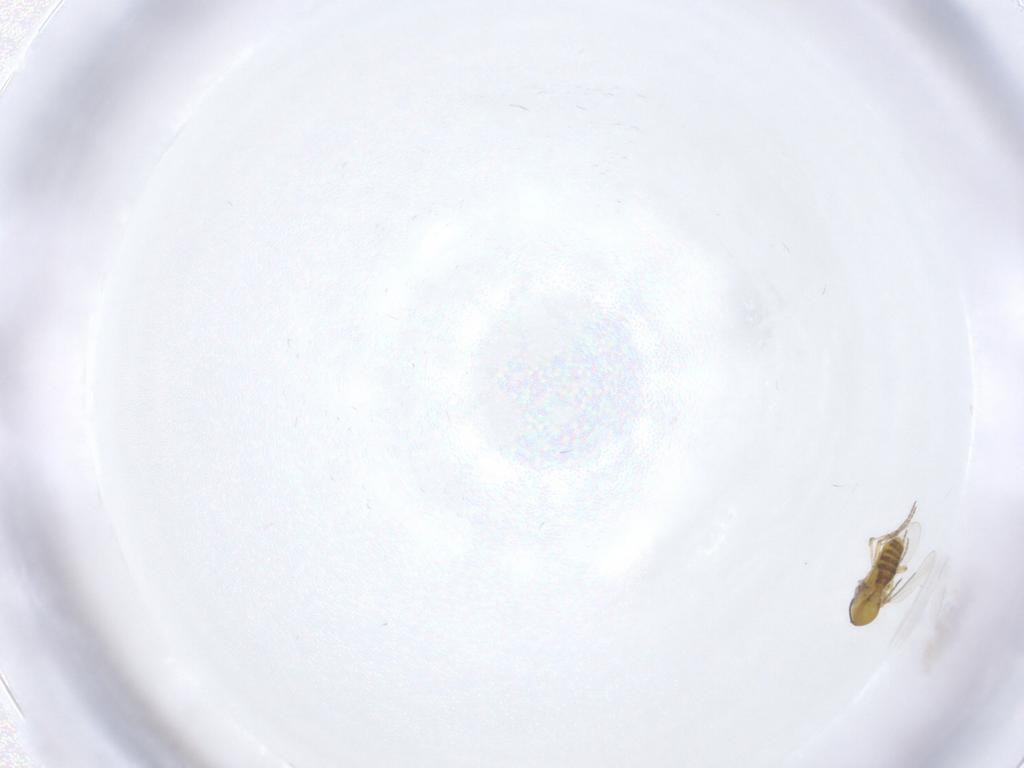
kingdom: Animalia
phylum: Arthropoda
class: Insecta
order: Diptera
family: Ceratopogonidae
